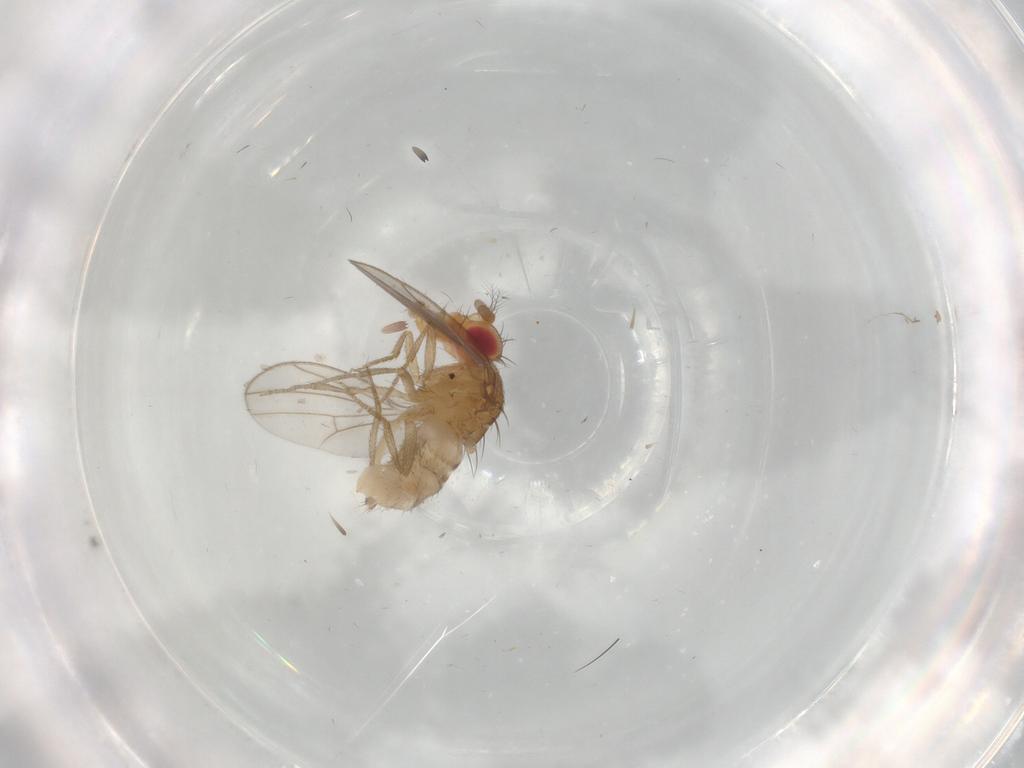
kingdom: Animalia
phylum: Arthropoda
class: Insecta
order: Diptera
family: Drosophilidae
